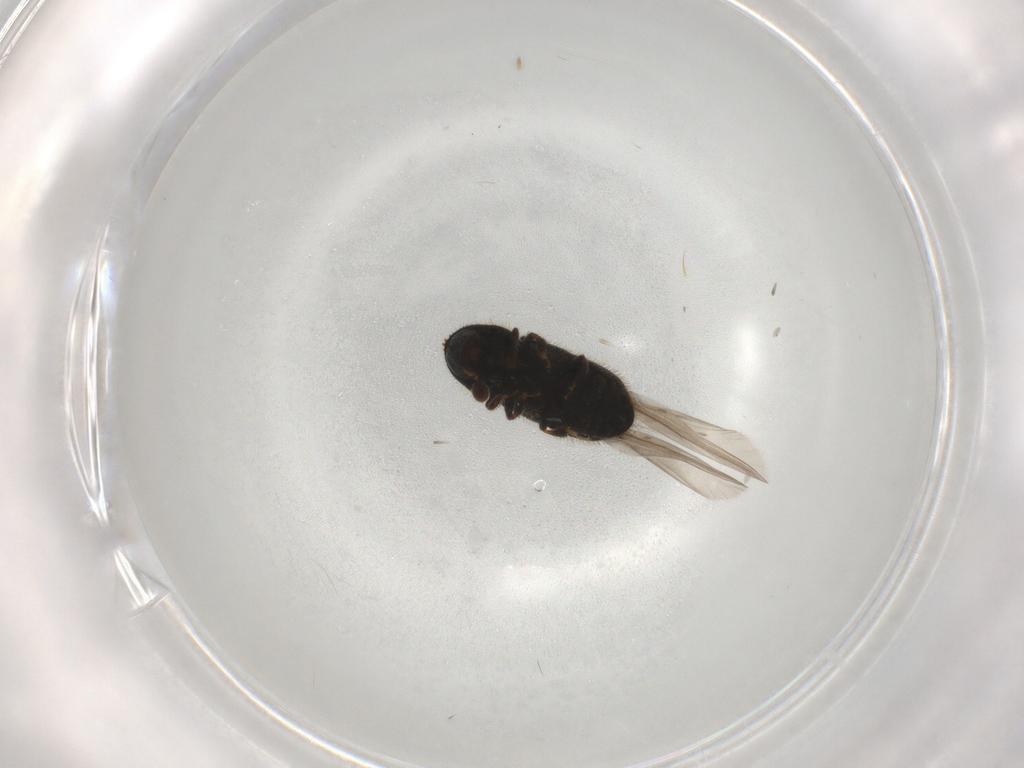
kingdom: Animalia
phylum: Arthropoda
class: Insecta
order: Coleoptera
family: Curculionidae
